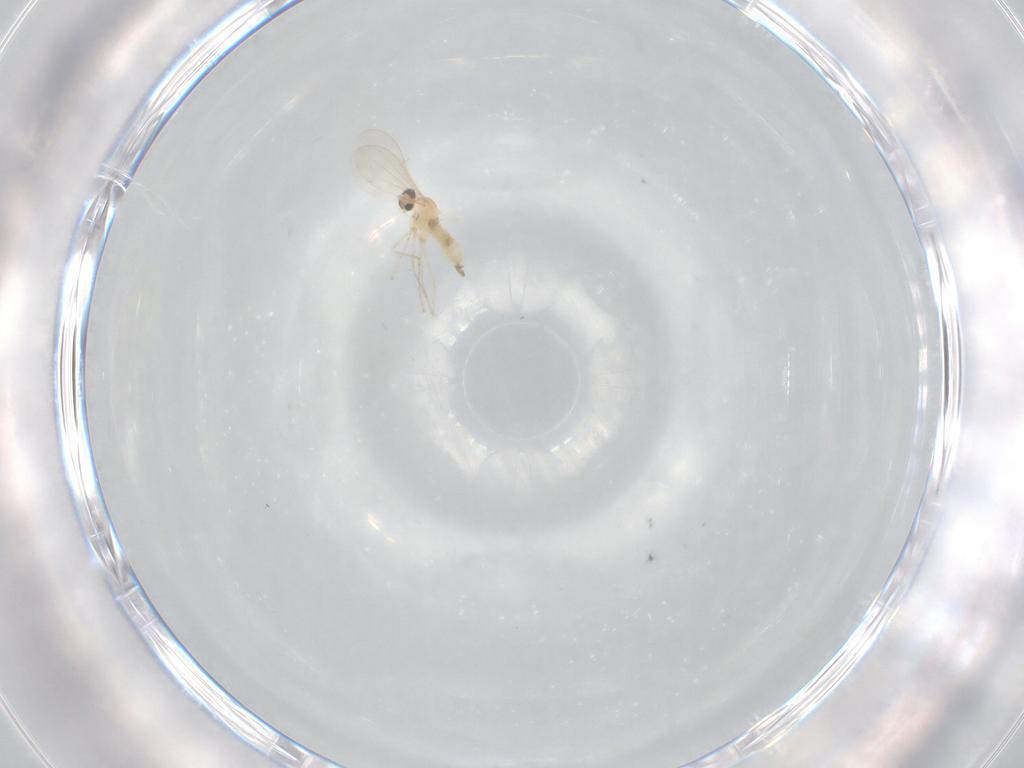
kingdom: Animalia
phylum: Arthropoda
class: Insecta
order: Diptera
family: Cecidomyiidae
